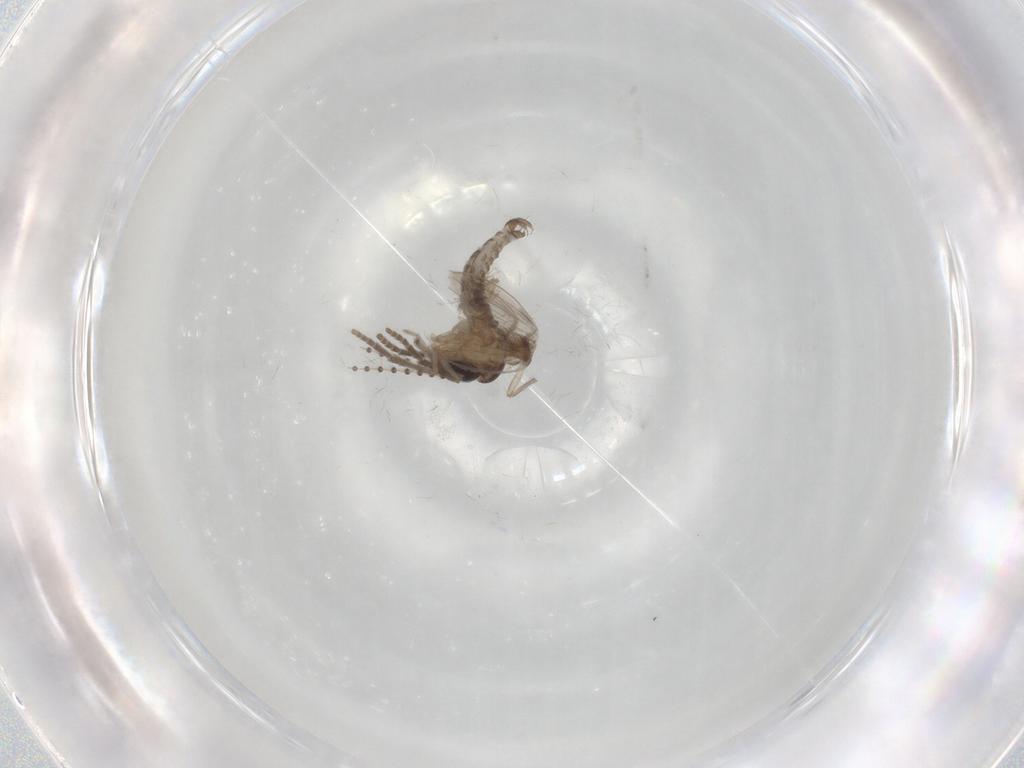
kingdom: Animalia
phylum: Arthropoda
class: Insecta
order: Diptera
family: Psychodidae
